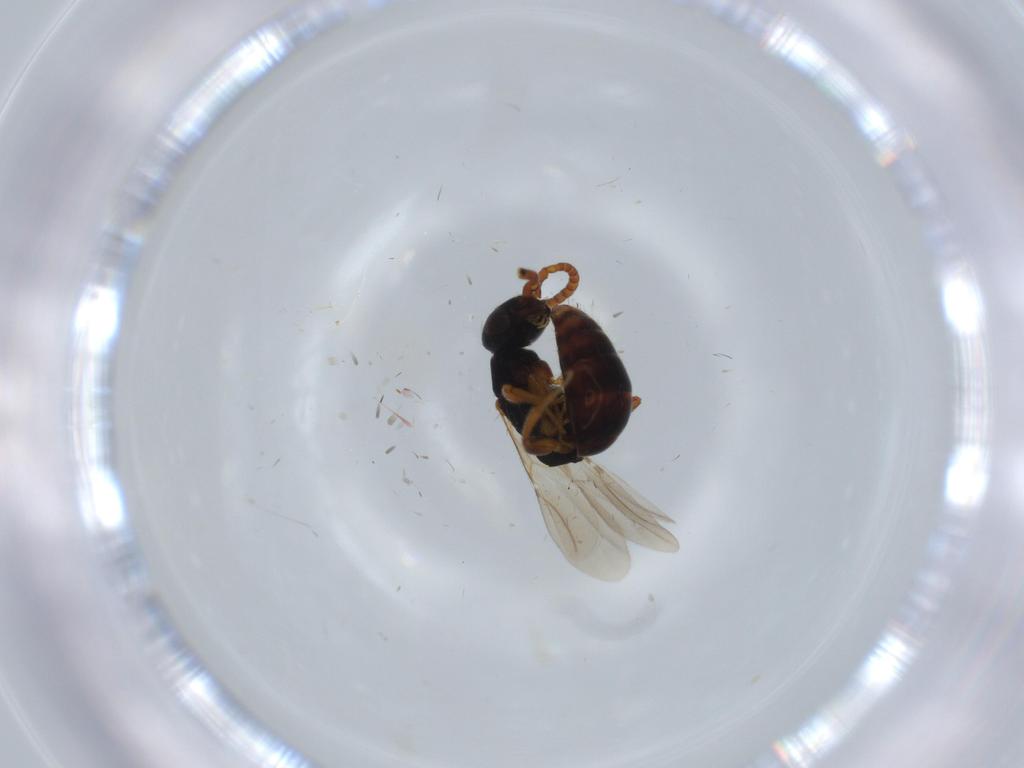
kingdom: Animalia
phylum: Arthropoda
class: Insecta
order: Hymenoptera
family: Bethylidae
